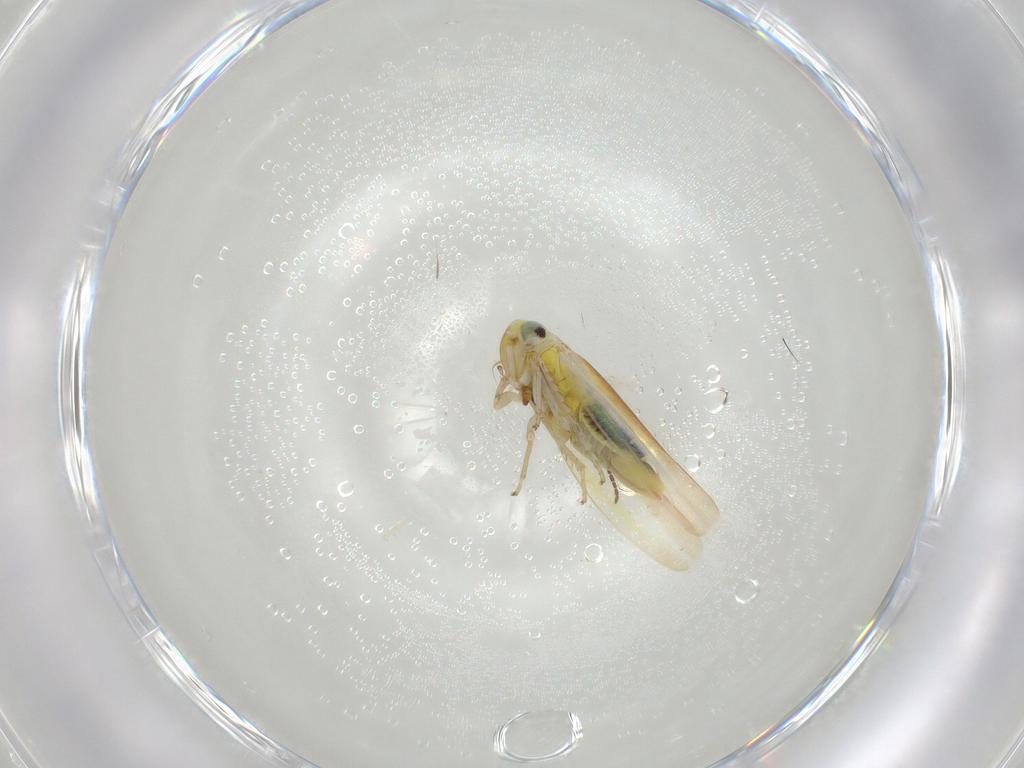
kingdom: Animalia
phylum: Arthropoda
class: Insecta
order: Hemiptera
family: Cicadellidae
